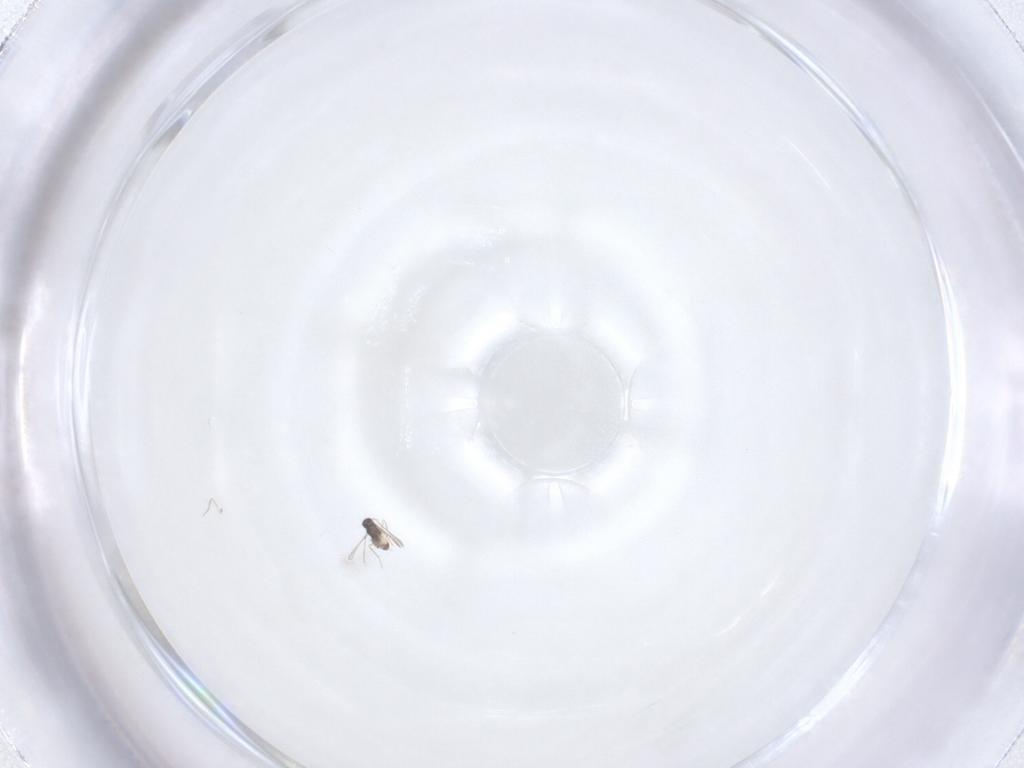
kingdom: Animalia
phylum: Arthropoda
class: Insecta
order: Hymenoptera
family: Mymaridae
